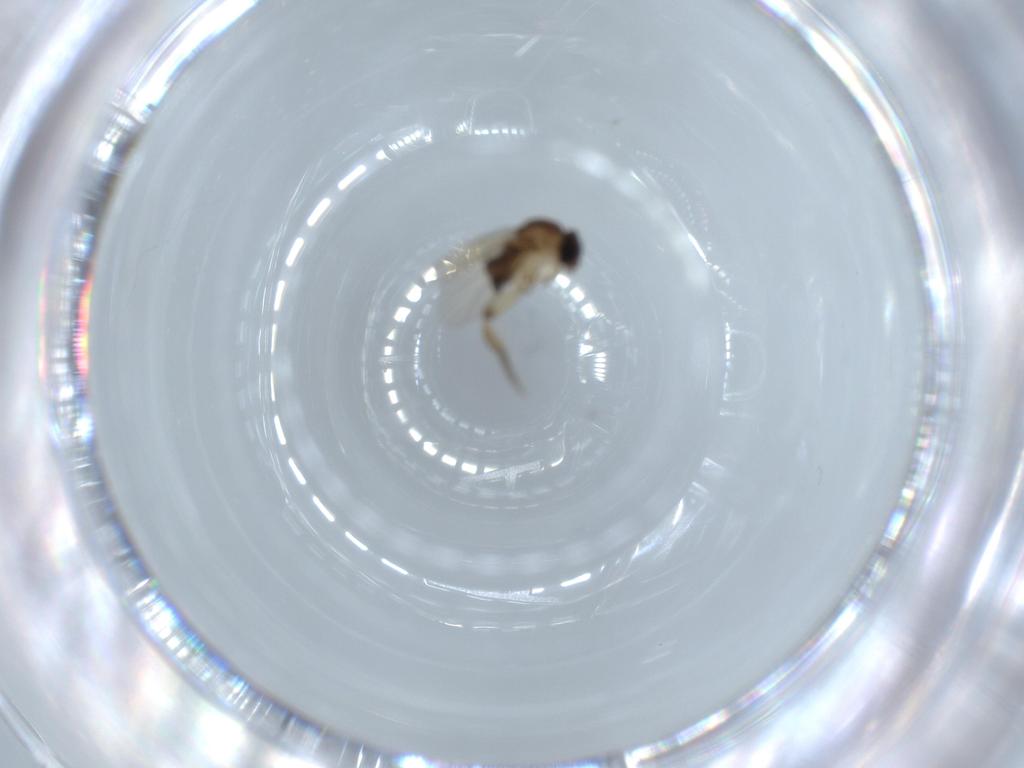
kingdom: Animalia
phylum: Arthropoda
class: Insecta
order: Diptera
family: Phoridae
